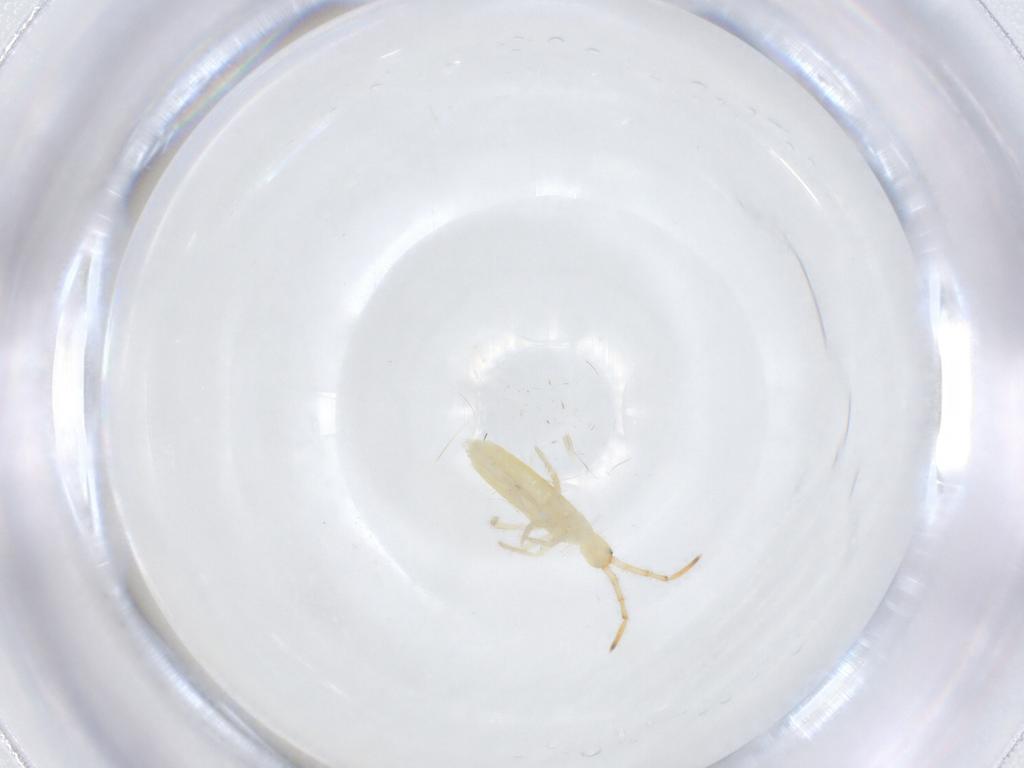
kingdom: Animalia
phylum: Arthropoda
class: Collembola
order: Entomobryomorpha
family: Entomobryidae
